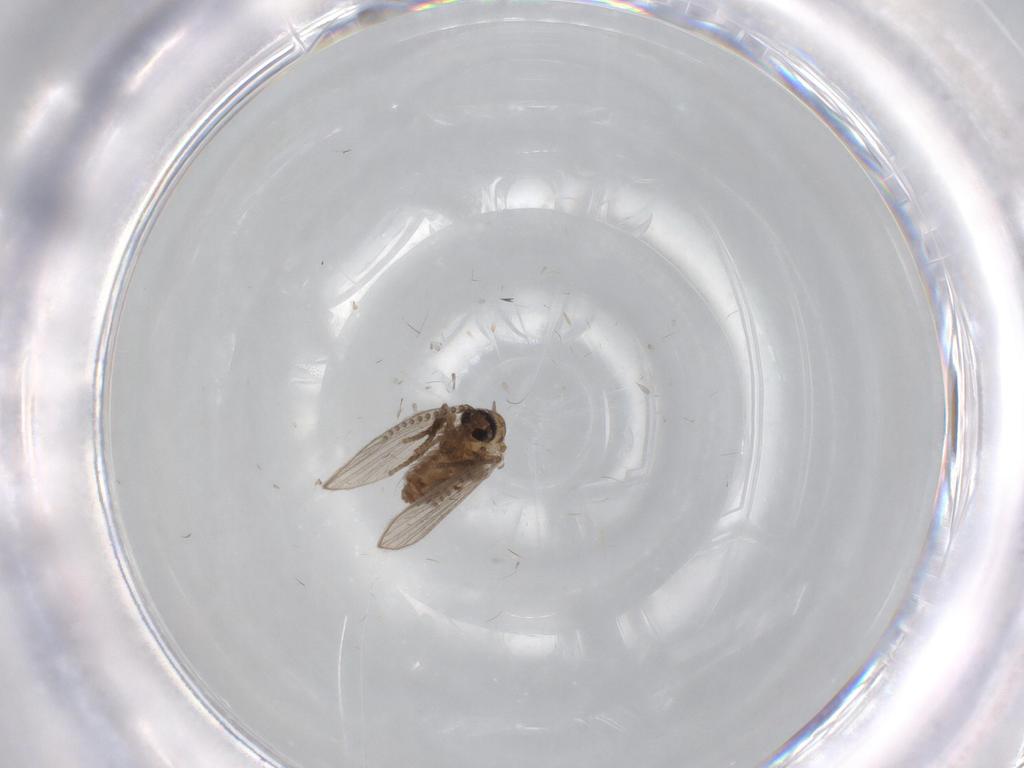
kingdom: Animalia
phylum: Arthropoda
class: Insecta
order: Diptera
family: Psychodidae
